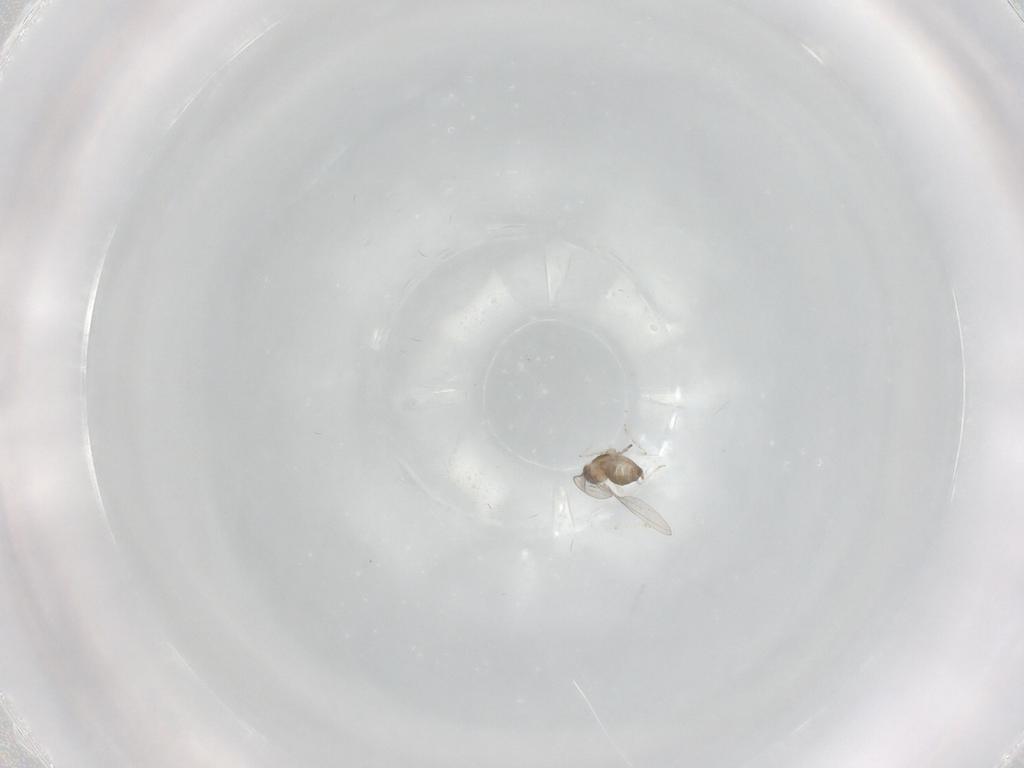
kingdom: Animalia
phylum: Arthropoda
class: Insecta
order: Diptera
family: Cecidomyiidae
